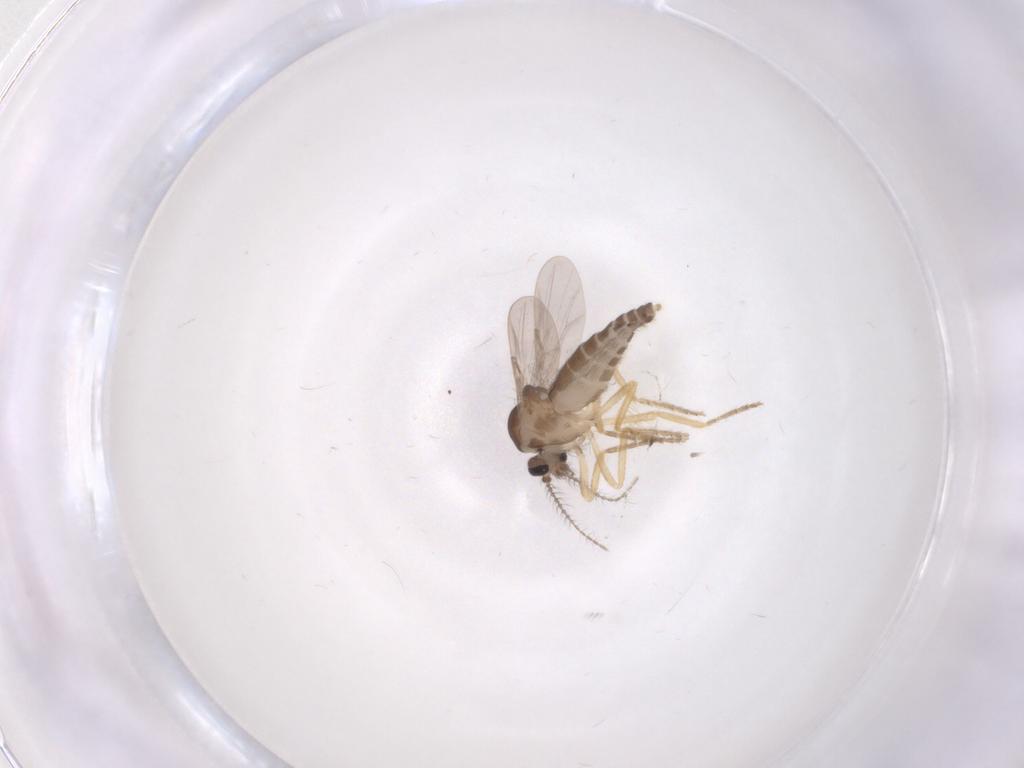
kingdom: Animalia
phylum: Arthropoda
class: Insecta
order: Diptera
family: Ceratopogonidae
